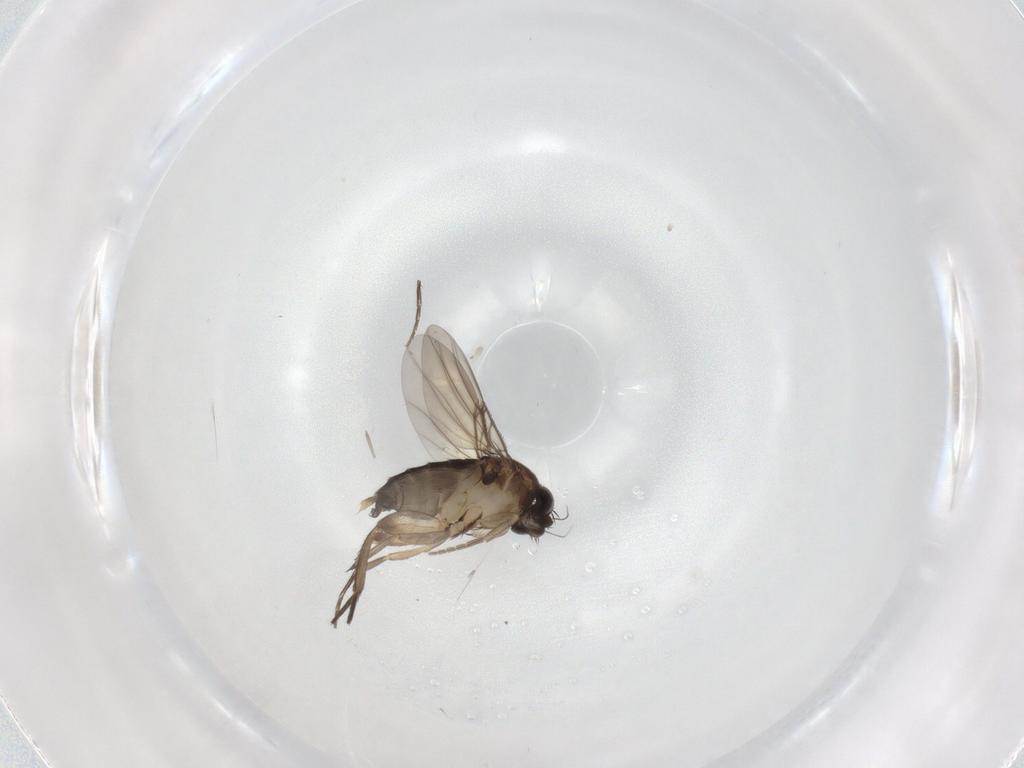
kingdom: Animalia
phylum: Arthropoda
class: Insecta
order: Diptera
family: Phoridae
